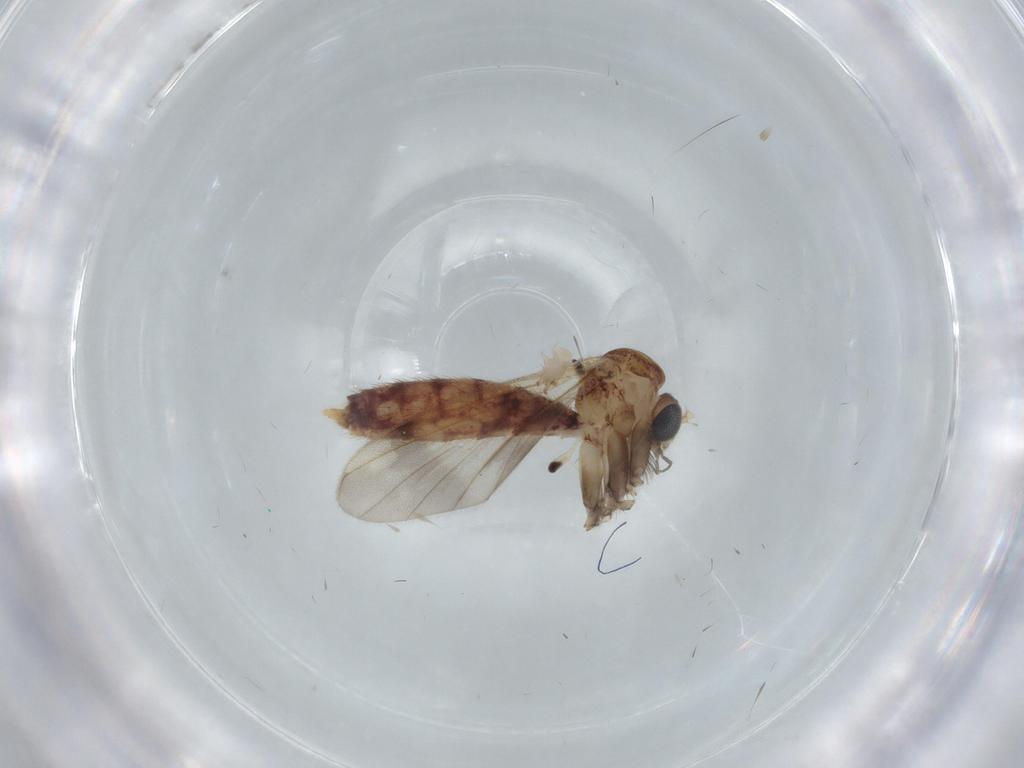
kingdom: Animalia
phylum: Arthropoda
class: Insecta
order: Diptera
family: Mycetophilidae
